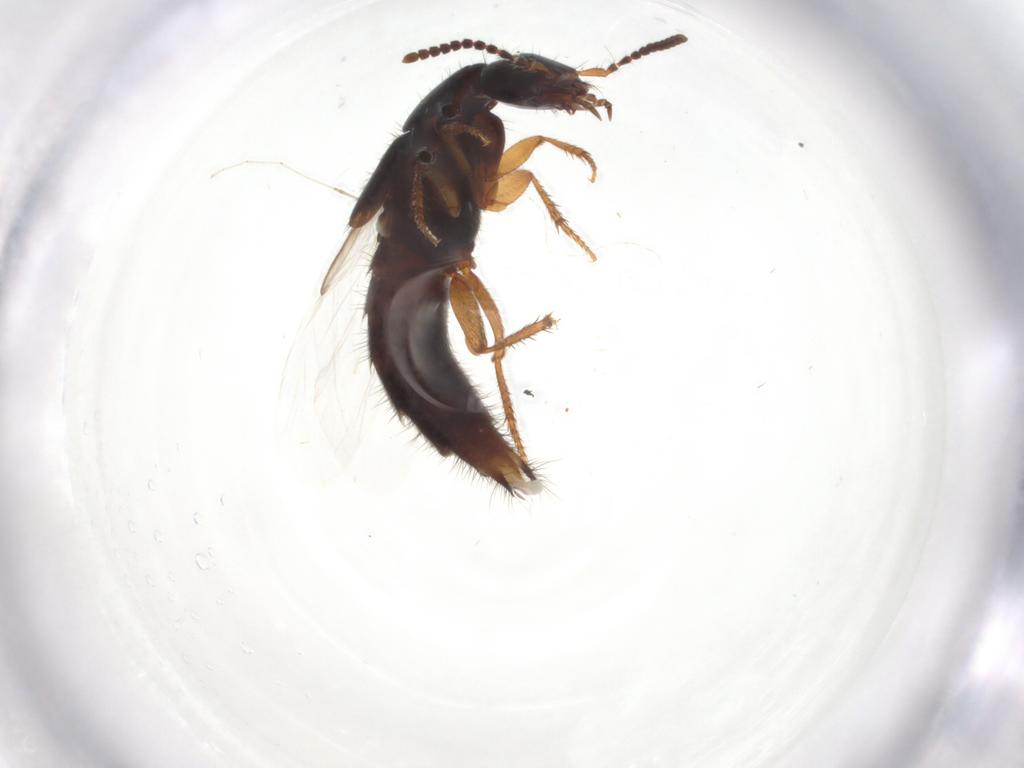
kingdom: Animalia
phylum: Arthropoda
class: Insecta
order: Coleoptera
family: Staphylinidae
